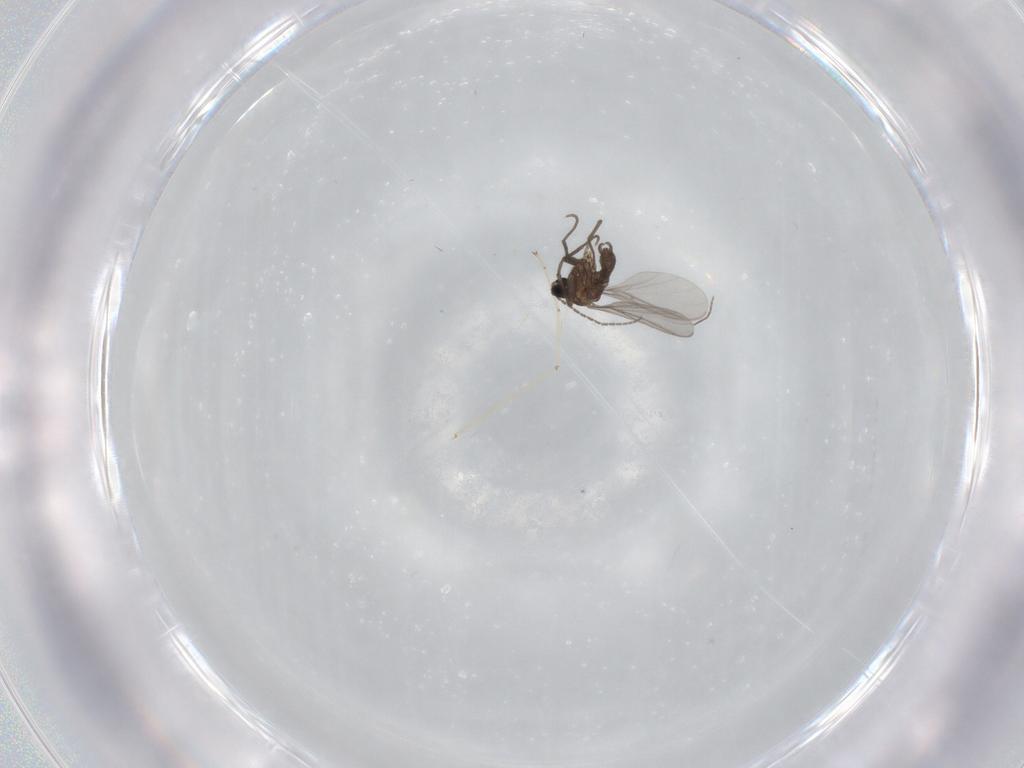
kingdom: Animalia
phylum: Arthropoda
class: Insecta
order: Diptera
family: Sciaridae
